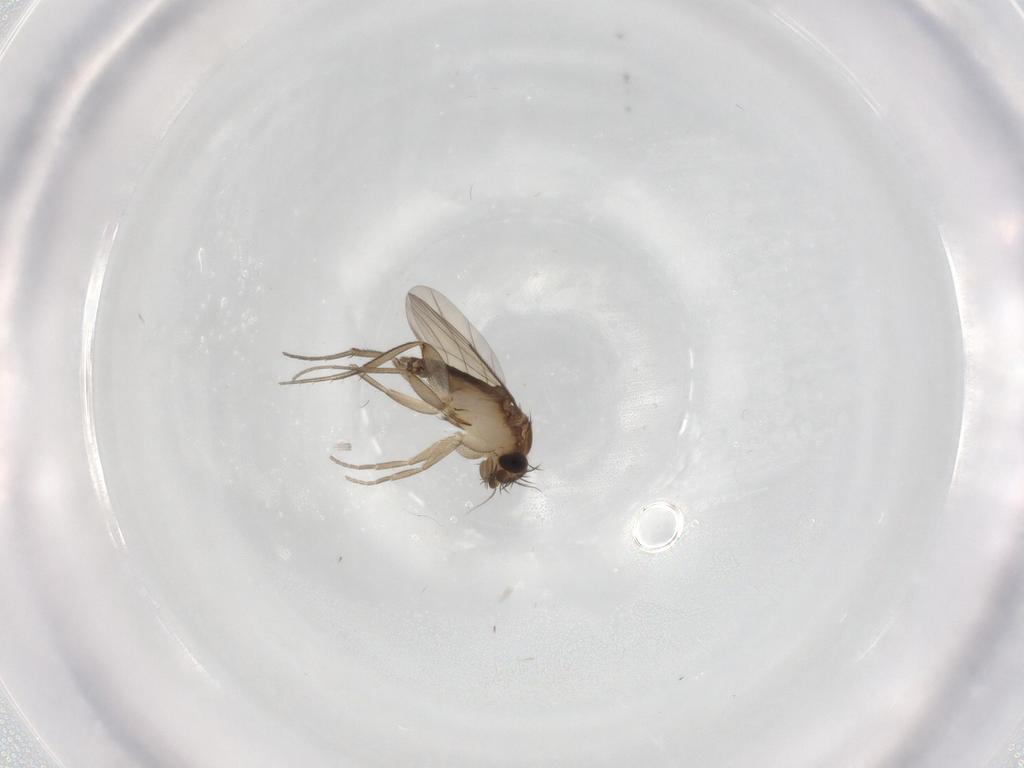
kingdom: Animalia
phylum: Arthropoda
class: Insecta
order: Diptera
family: Phoridae
